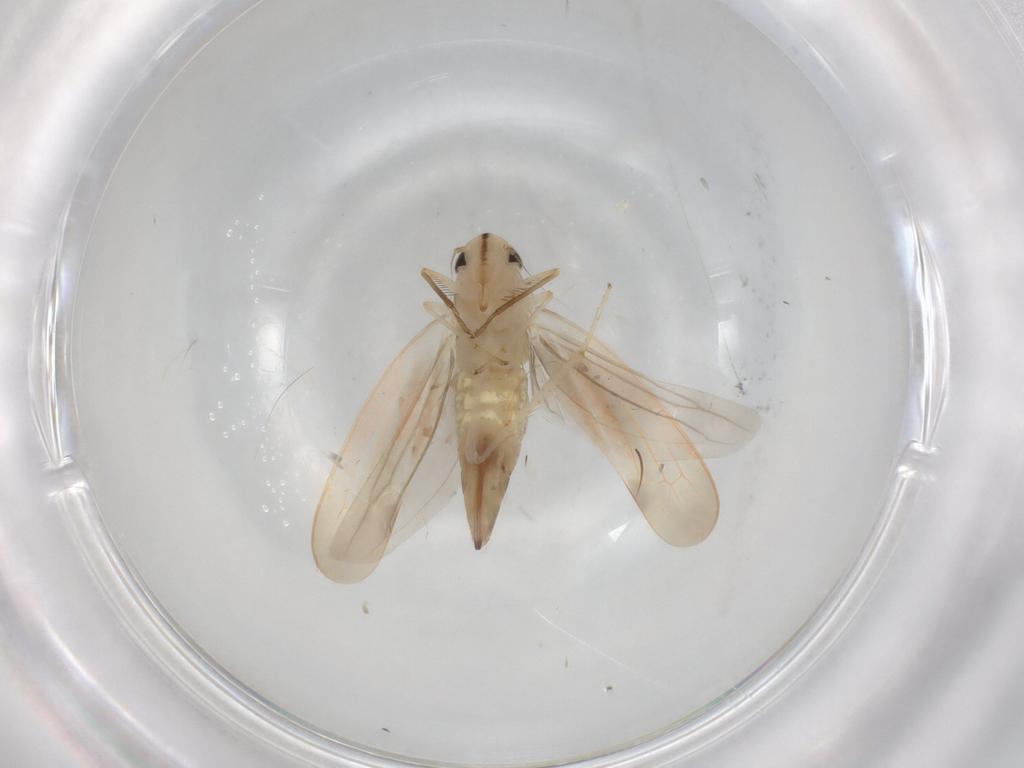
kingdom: Animalia
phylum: Arthropoda
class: Insecta
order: Hemiptera
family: Cicadellidae
